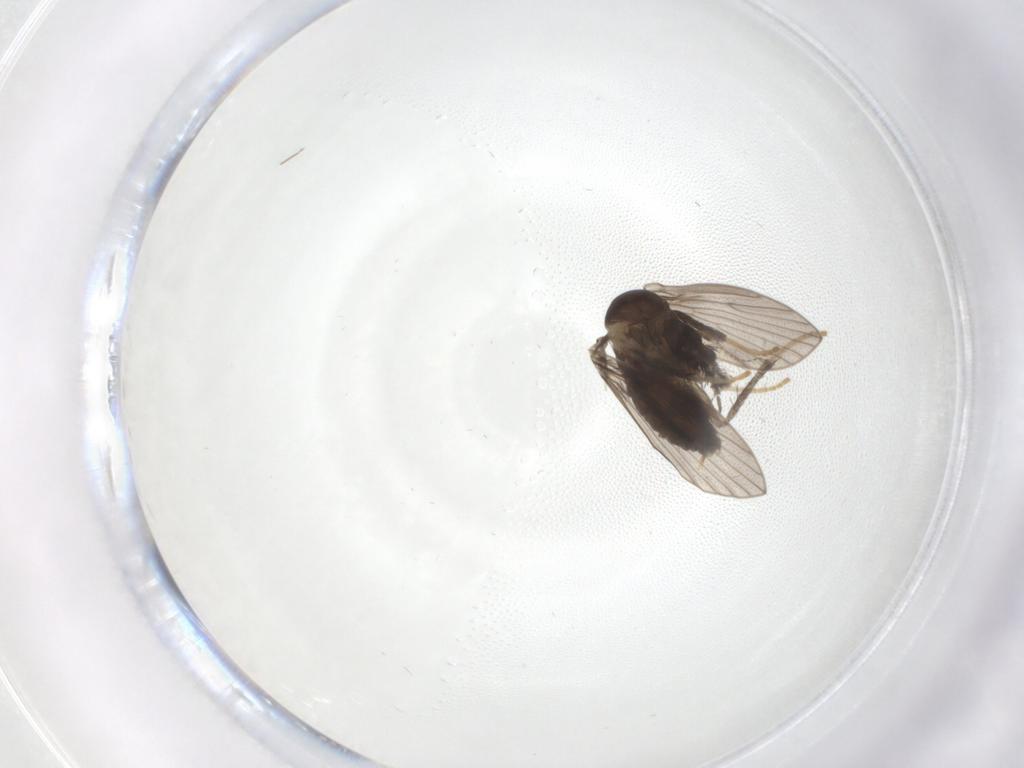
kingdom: Animalia
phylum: Arthropoda
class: Insecta
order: Diptera
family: Psychodidae
